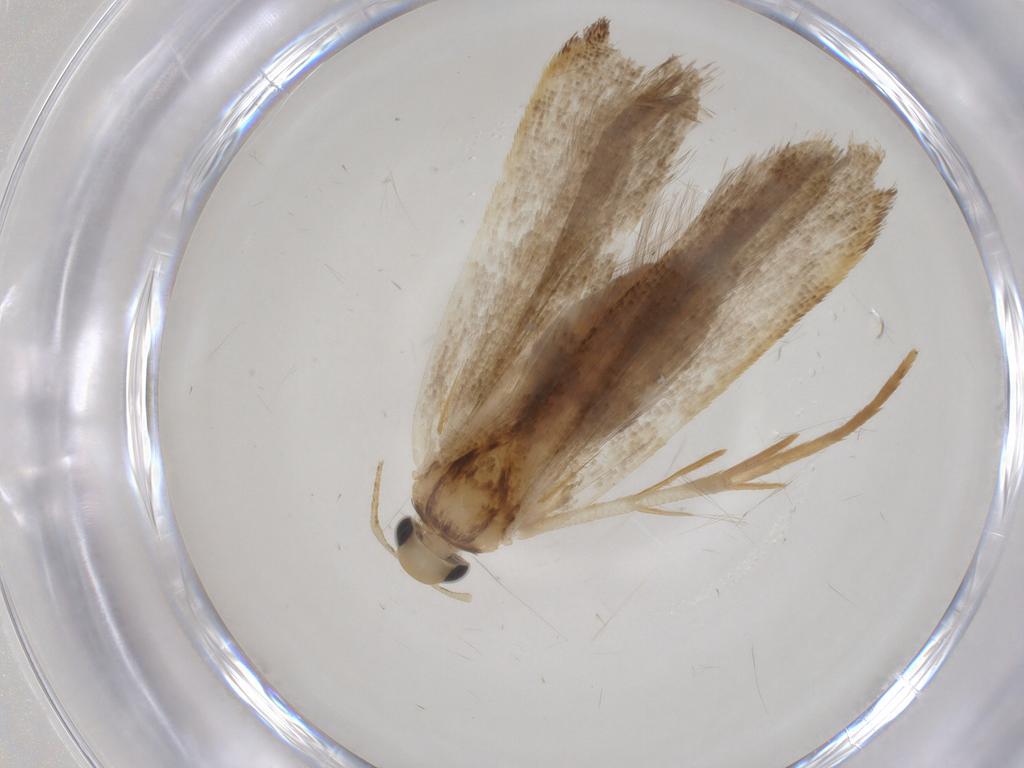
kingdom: Animalia
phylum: Arthropoda
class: Insecta
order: Lepidoptera
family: Gelechiidae
